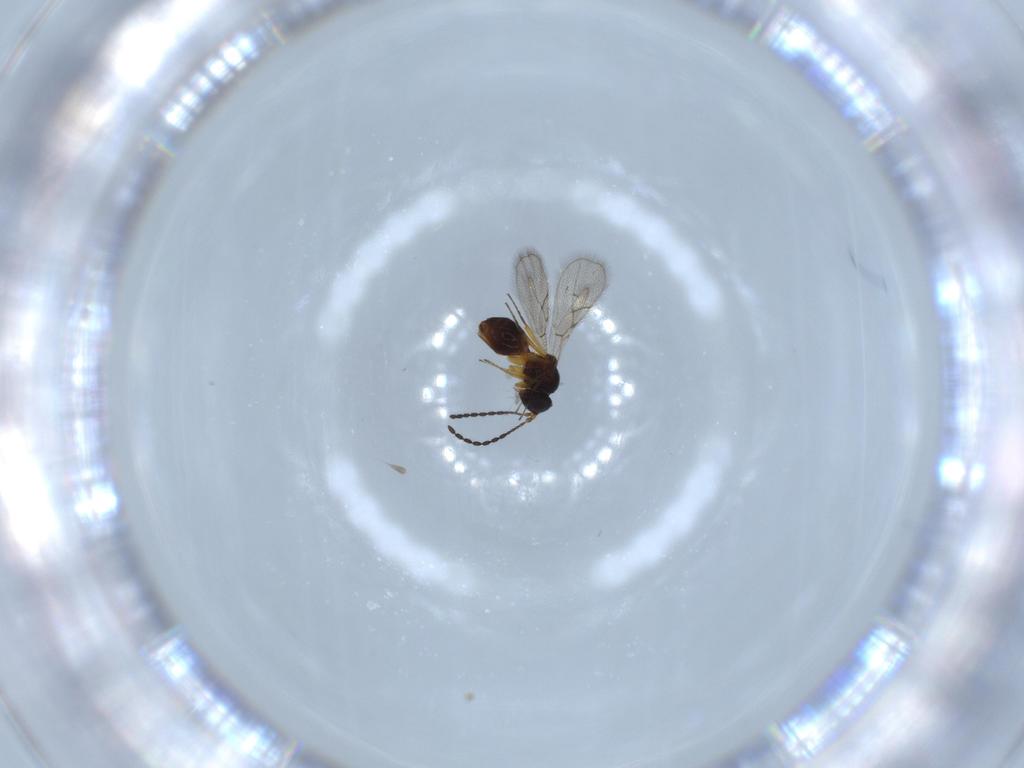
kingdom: Animalia
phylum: Arthropoda
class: Insecta
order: Hymenoptera
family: Figitidae
